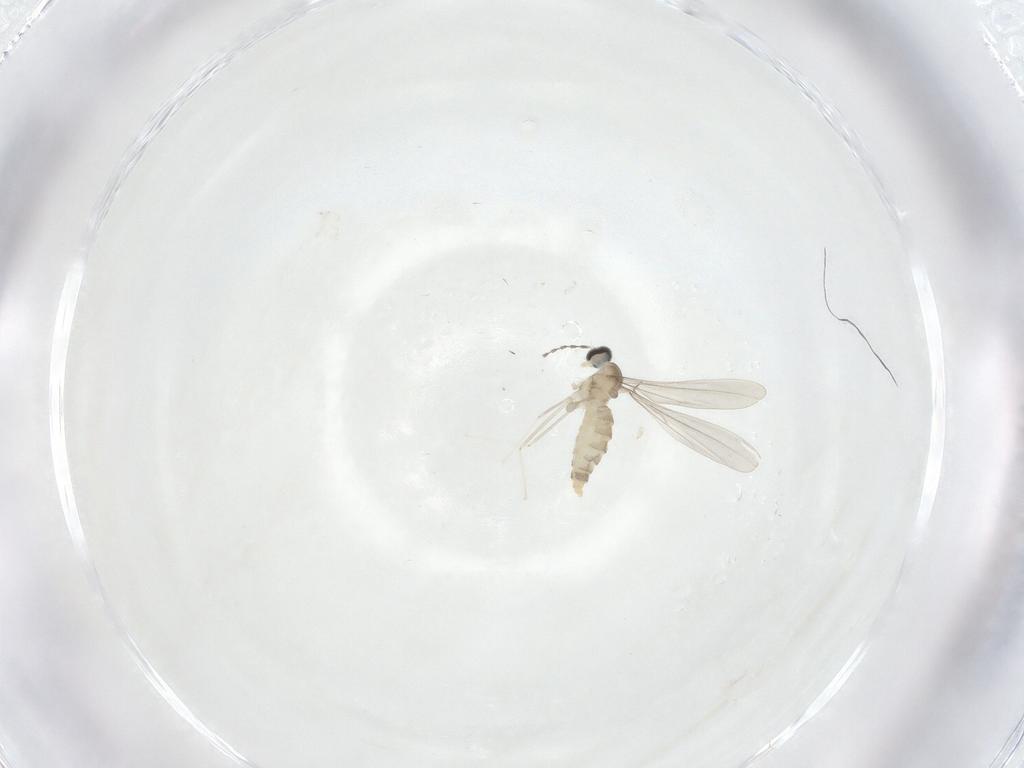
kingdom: Animalia
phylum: Arthropoda
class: Insecta
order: Diptera
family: Cecidomyiidae
